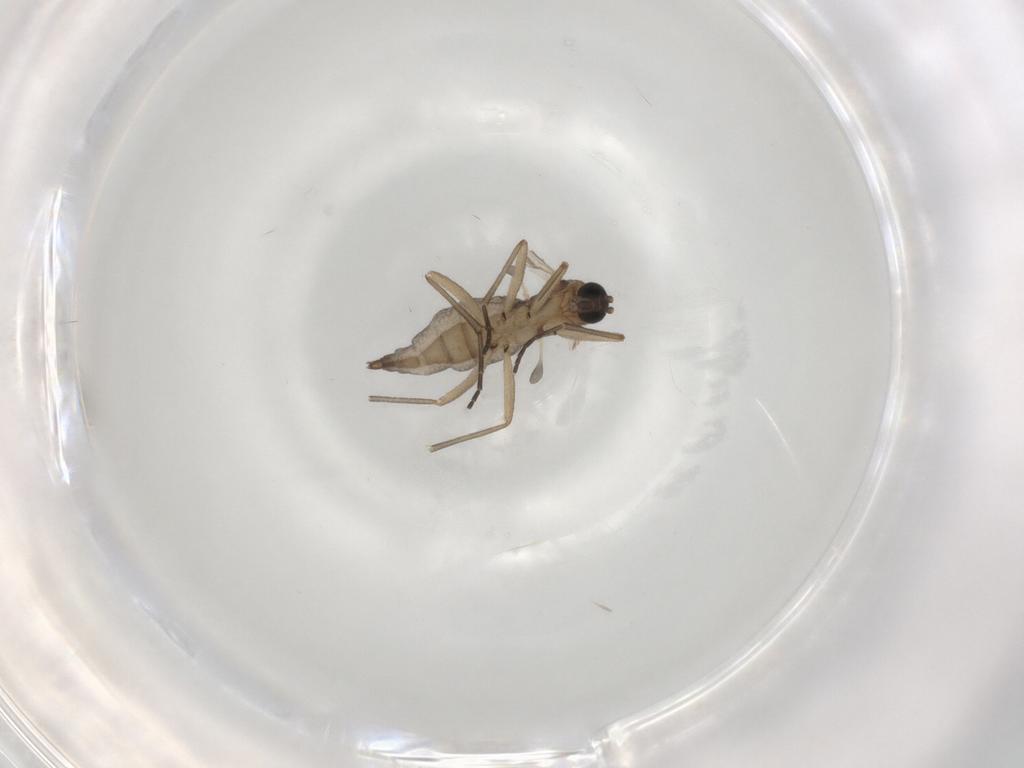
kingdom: Animalia
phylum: Arthropoda
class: Insecta
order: Diptera
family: Sciaridae
